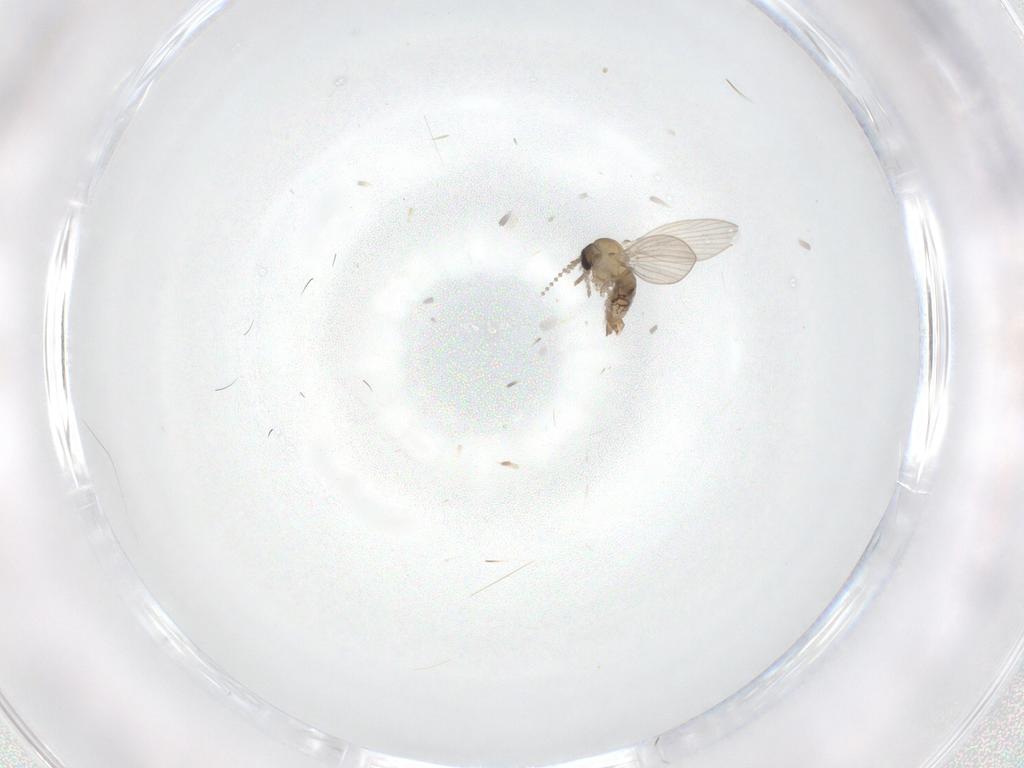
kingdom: Animalia
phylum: Arthropoda
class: Insecta
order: Diptera
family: Psychodidae
